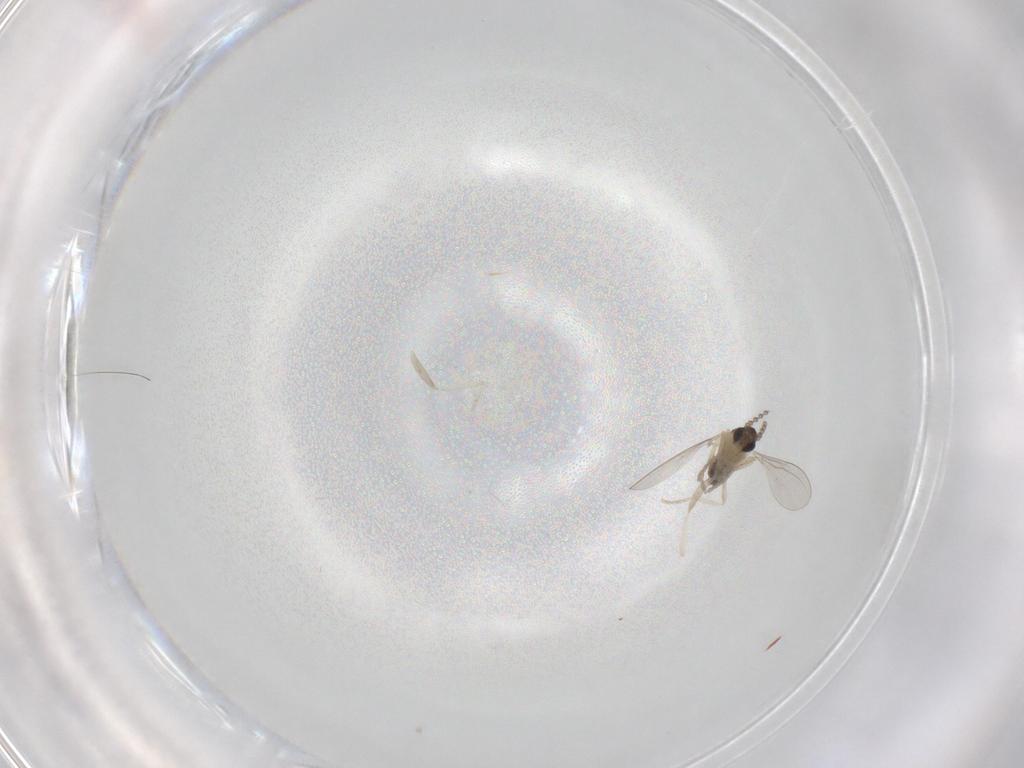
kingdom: Animalia
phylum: Arthropoda
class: Insecta
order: Diptera
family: Cecidomyiidae
